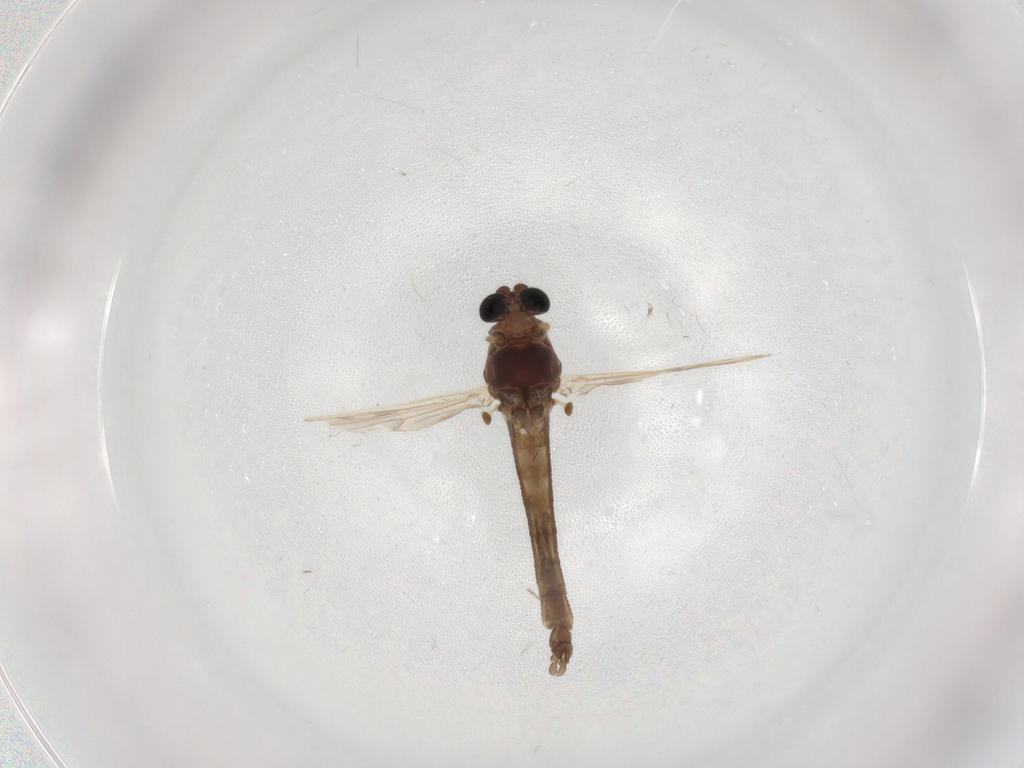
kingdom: Animalia
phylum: Arthropoda
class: Insecta
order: Diptera
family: Chironomidae
